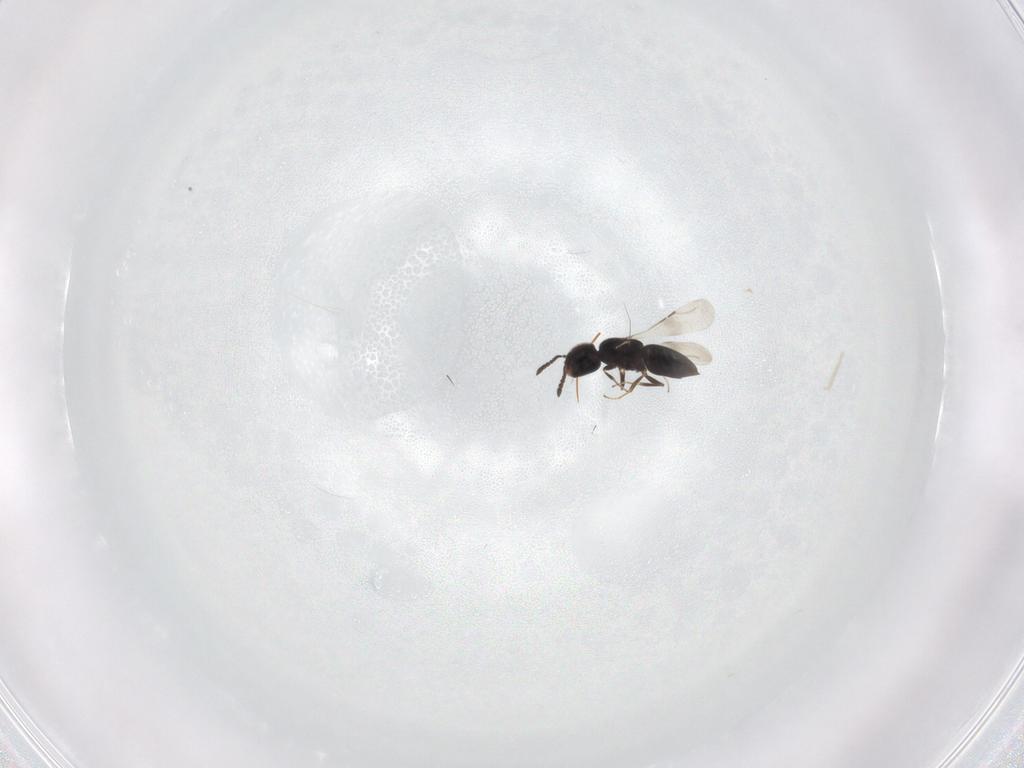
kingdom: Animalia
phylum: Arthropoda
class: Insecta
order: Hymenoptera
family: Ceraphronidae
